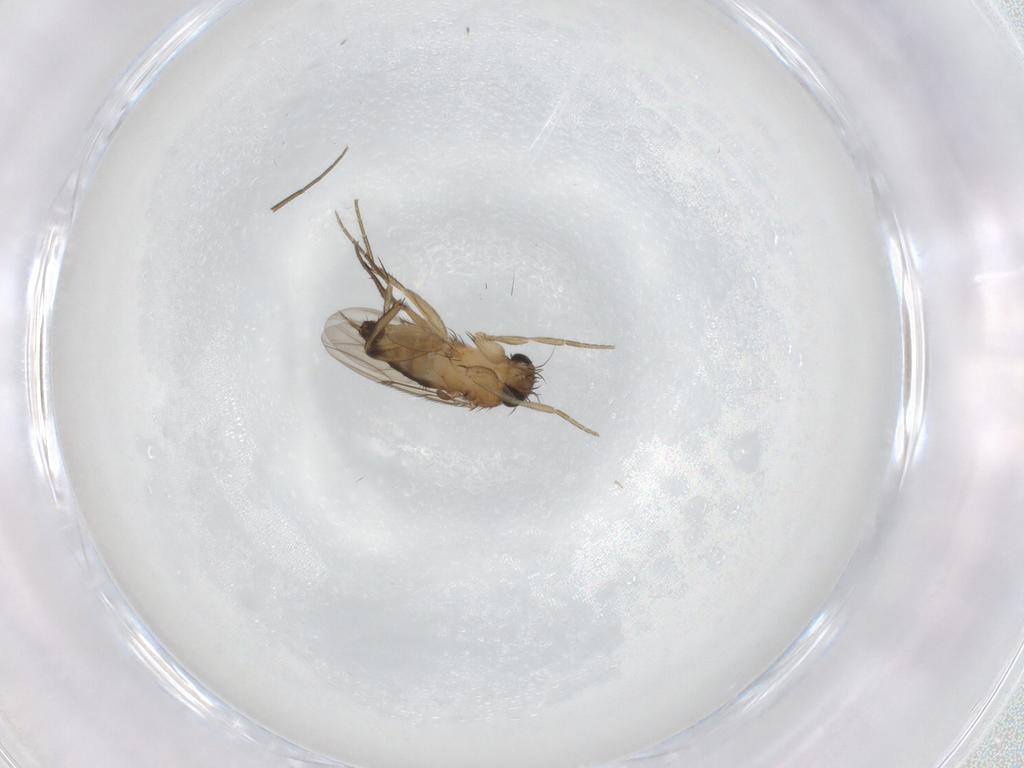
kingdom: Animalia
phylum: Arthropoda
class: Insecta
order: Diptera
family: Phoridae
